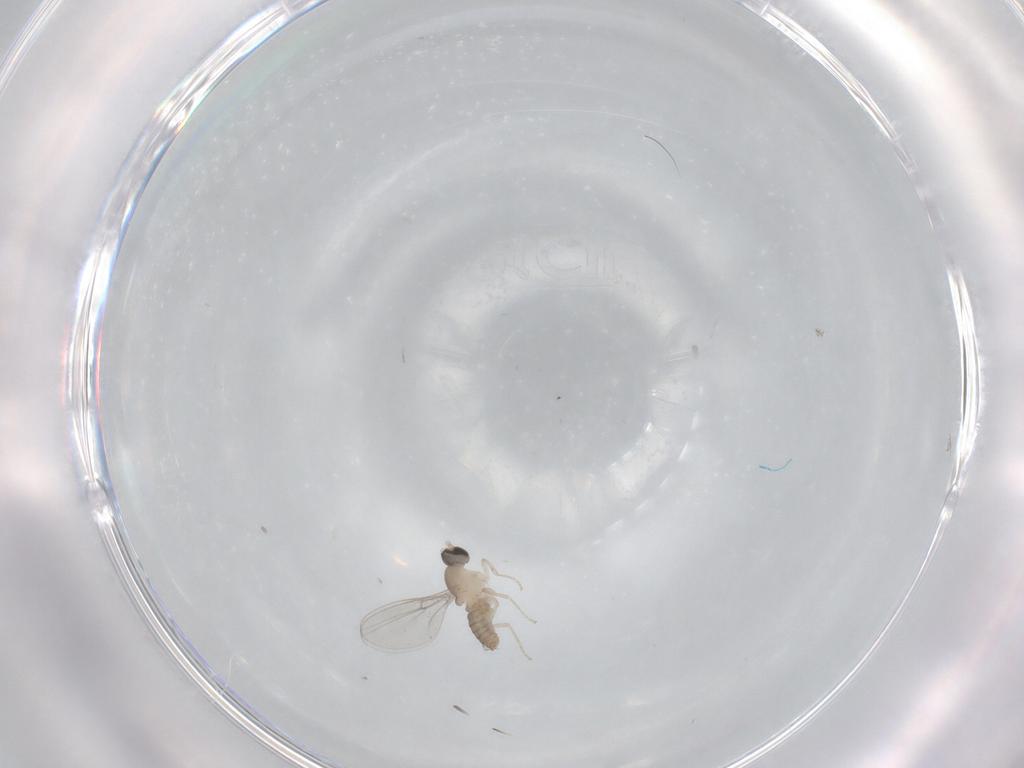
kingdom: Animalia
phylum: Arthropoda
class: Insecta
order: Diptera
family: Cecidomyiidae
